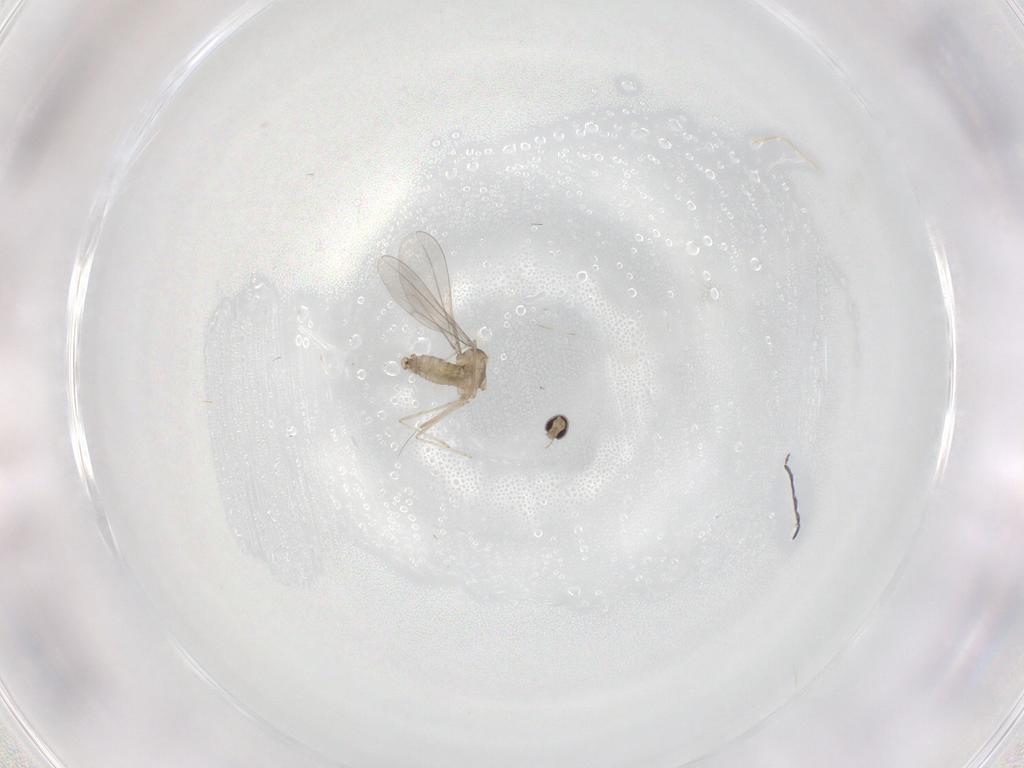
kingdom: Animalia
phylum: Arthropoda
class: Insecta
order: Diptera
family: Cecidomyiidae
